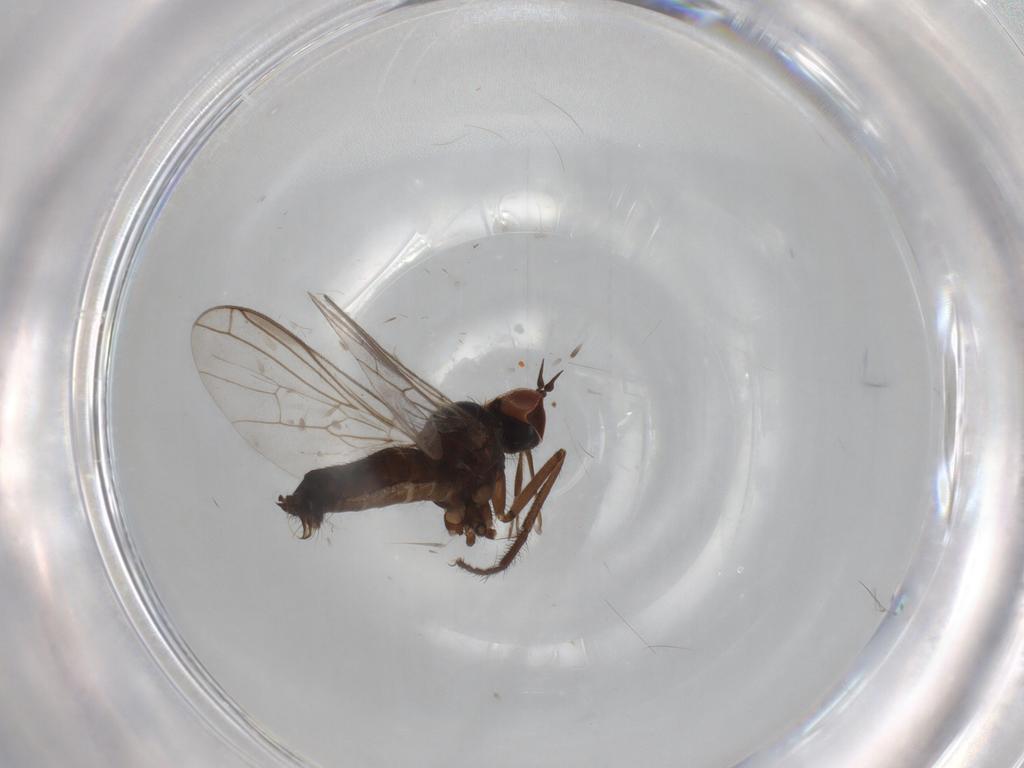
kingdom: Animalia
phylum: Arthropoda
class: Insecta
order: Diptera
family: Empididae
